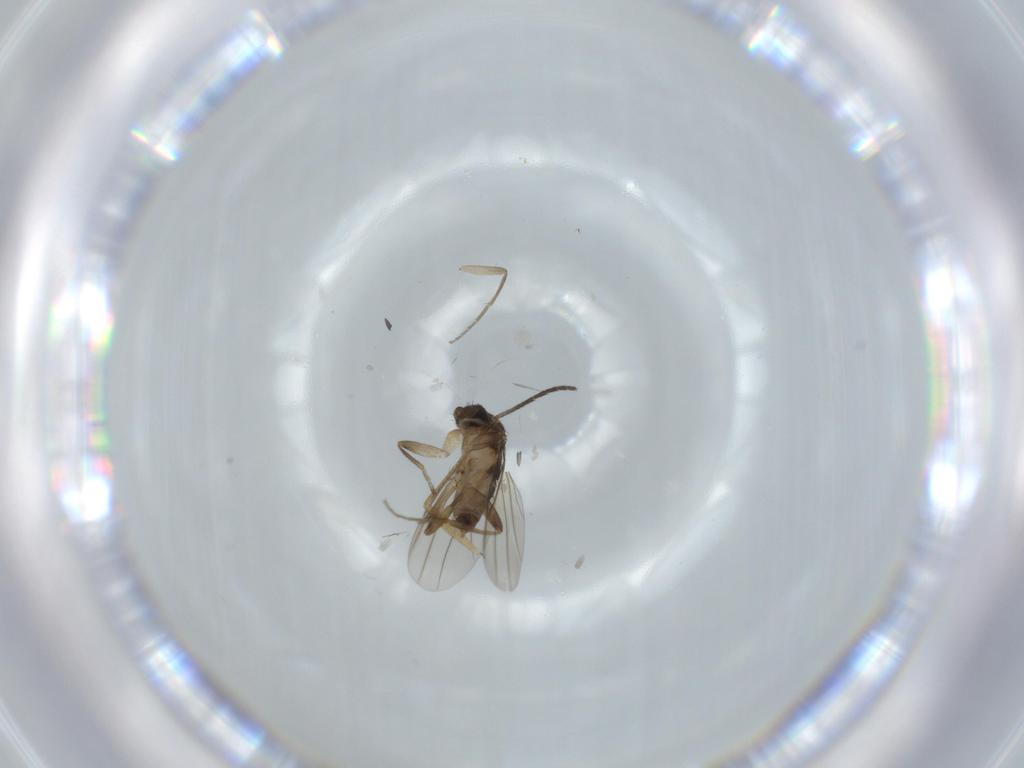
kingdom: Animalia
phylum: Arthropoda
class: Insecta
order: Diptera
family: Sciaridae
